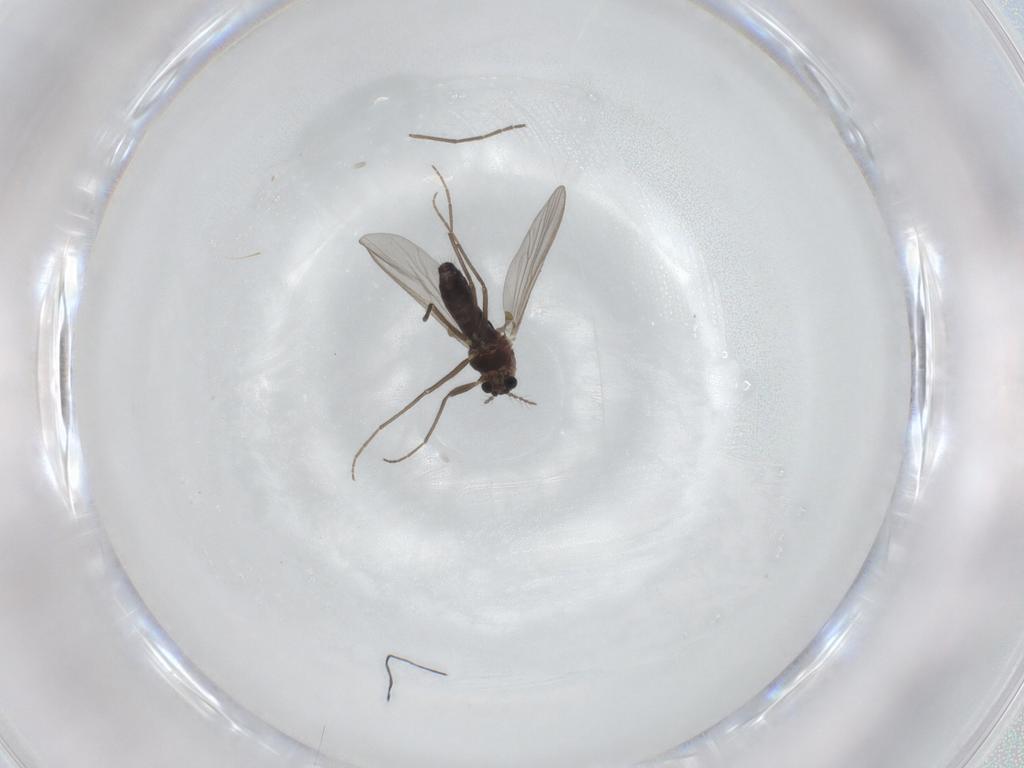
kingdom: Animalia
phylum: Arthropoda
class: Insecta
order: Diptera
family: Chironomidae
